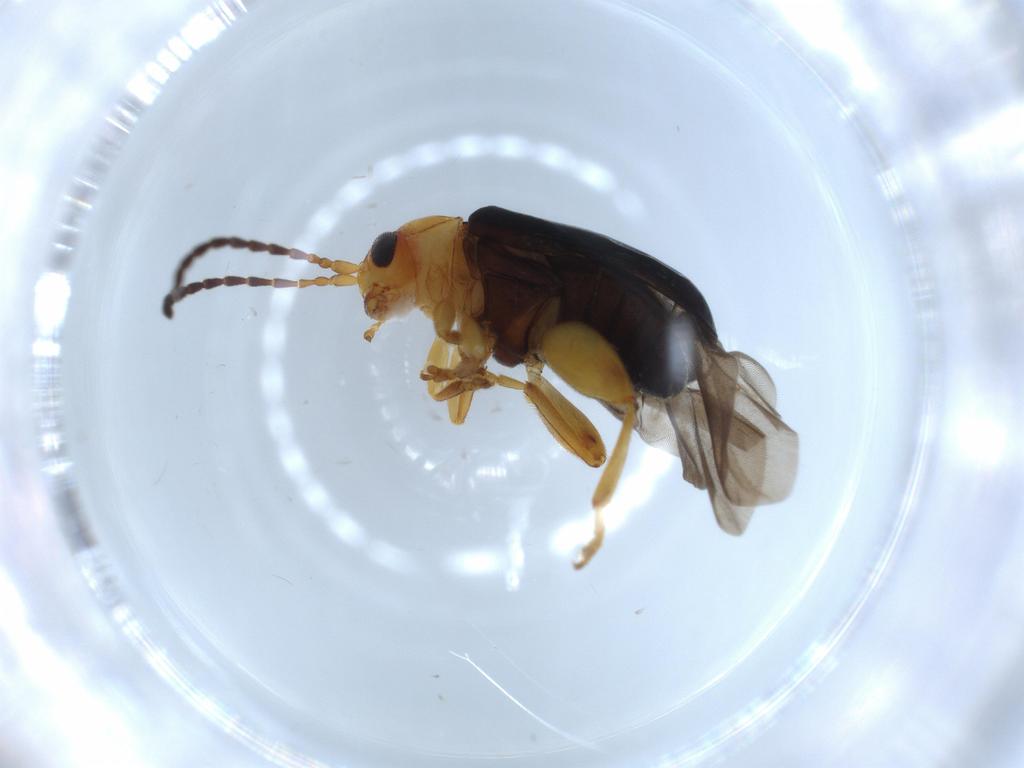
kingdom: Animalia
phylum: Arthropoda
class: Insecta
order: Coleoptera
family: Chrysomelidae
